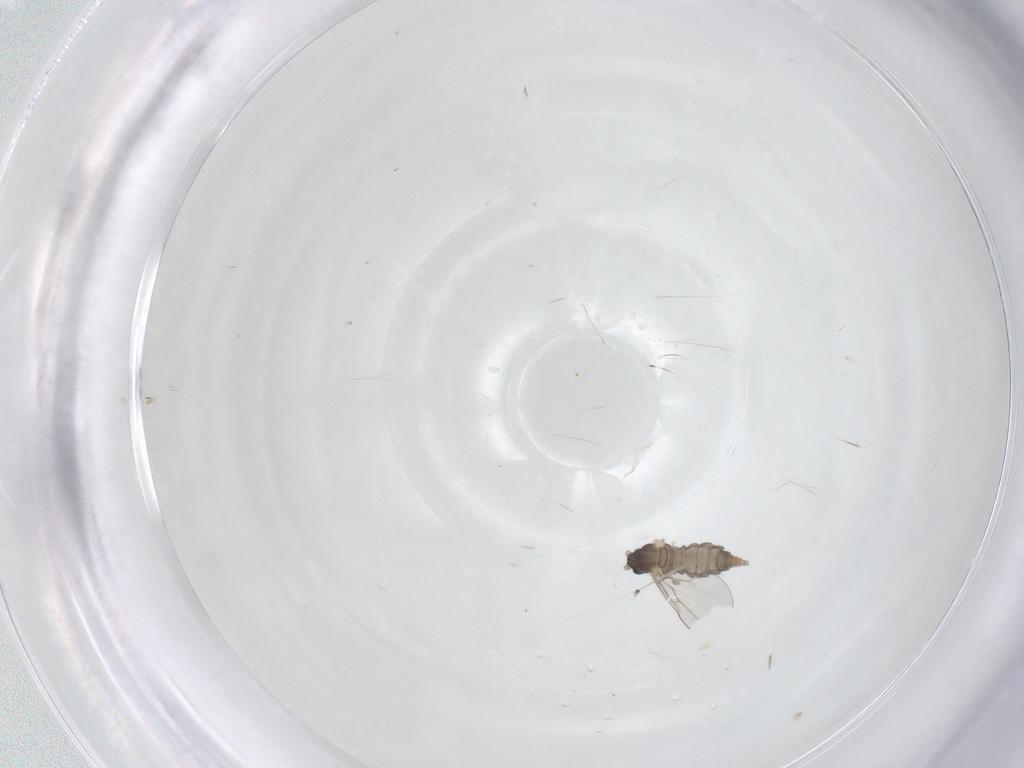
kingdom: Animalia
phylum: Arthropoda
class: Insecta
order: Diptera
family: Cecidomyiidae
